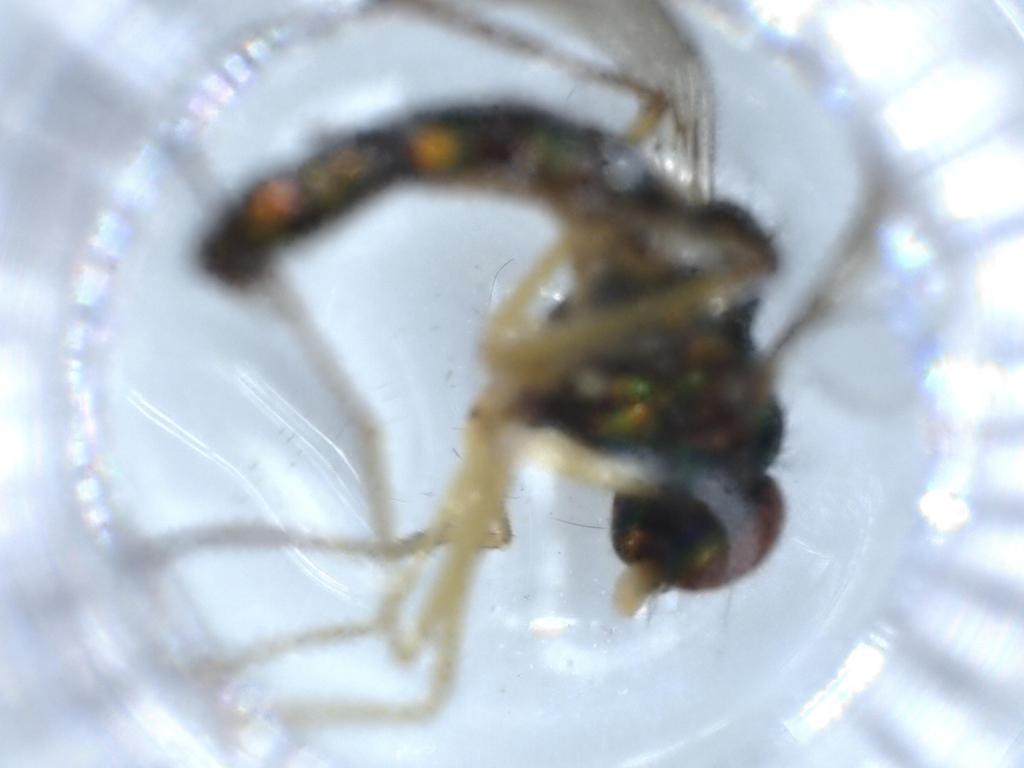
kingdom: Animalia
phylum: Arthropoda
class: Insecta
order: Diptera
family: Dolichopodidae
